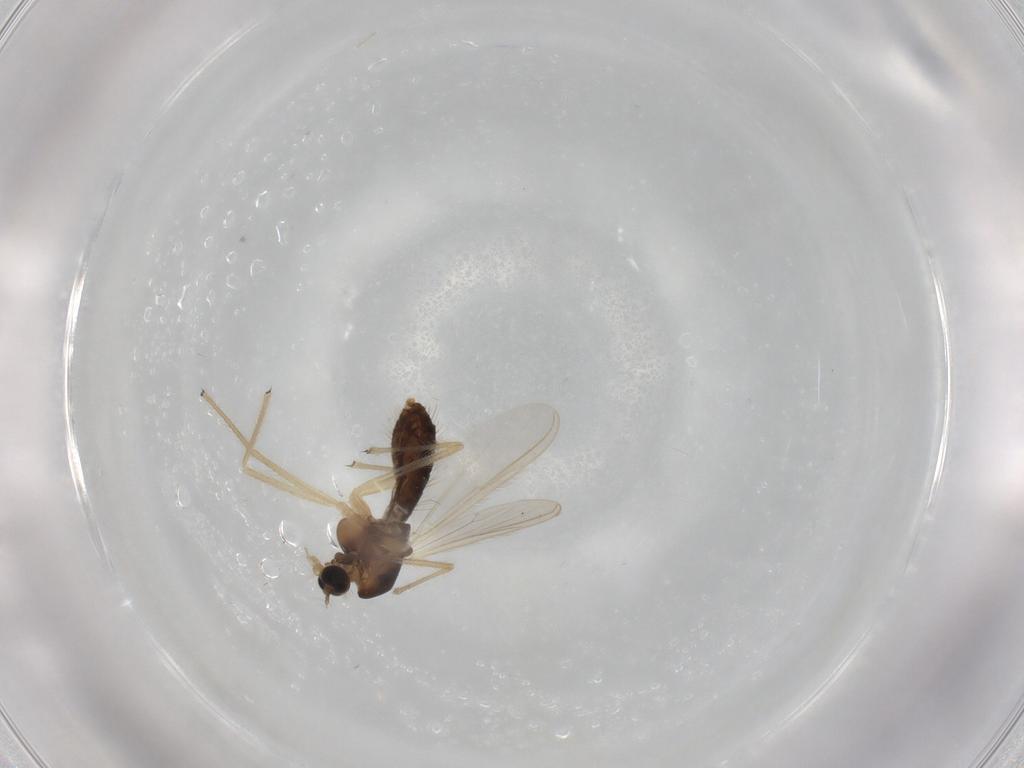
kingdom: Animalia
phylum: Arthropoda
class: Insecta
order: Diptera
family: Chironomidae
